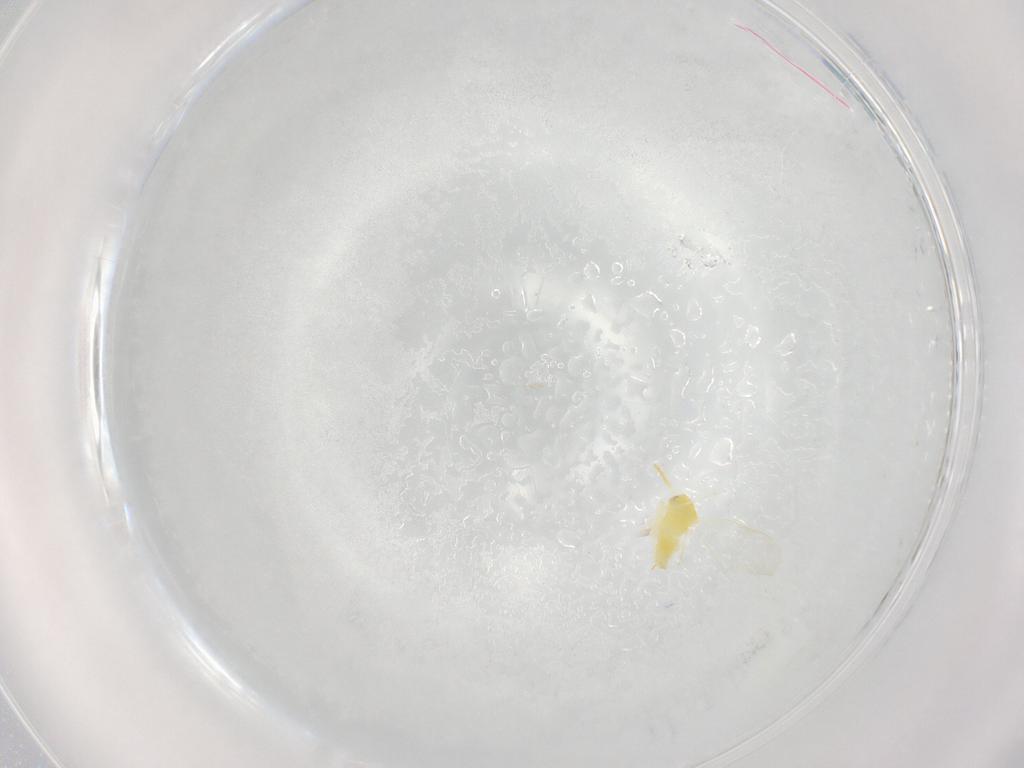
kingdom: Animalia
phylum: Arthropoda
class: Insecta
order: Hemiptera
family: Aleyrodidae
